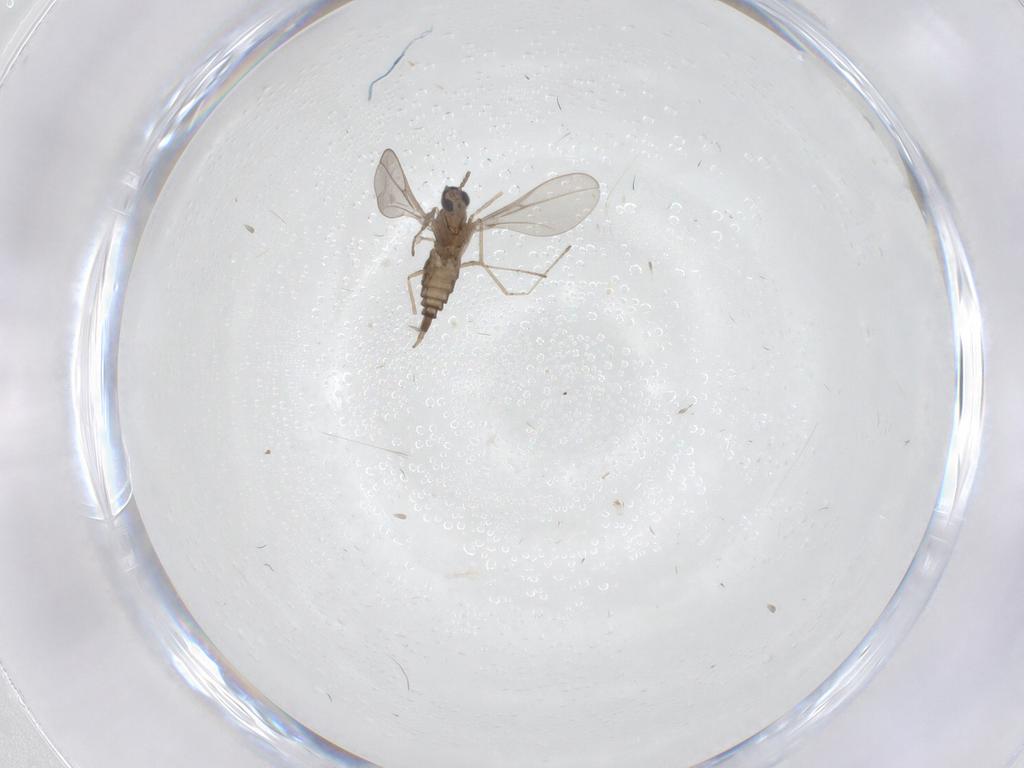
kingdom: Animalia
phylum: Arthropoda
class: Insecta
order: Diptera
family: Cecidomyiidae
